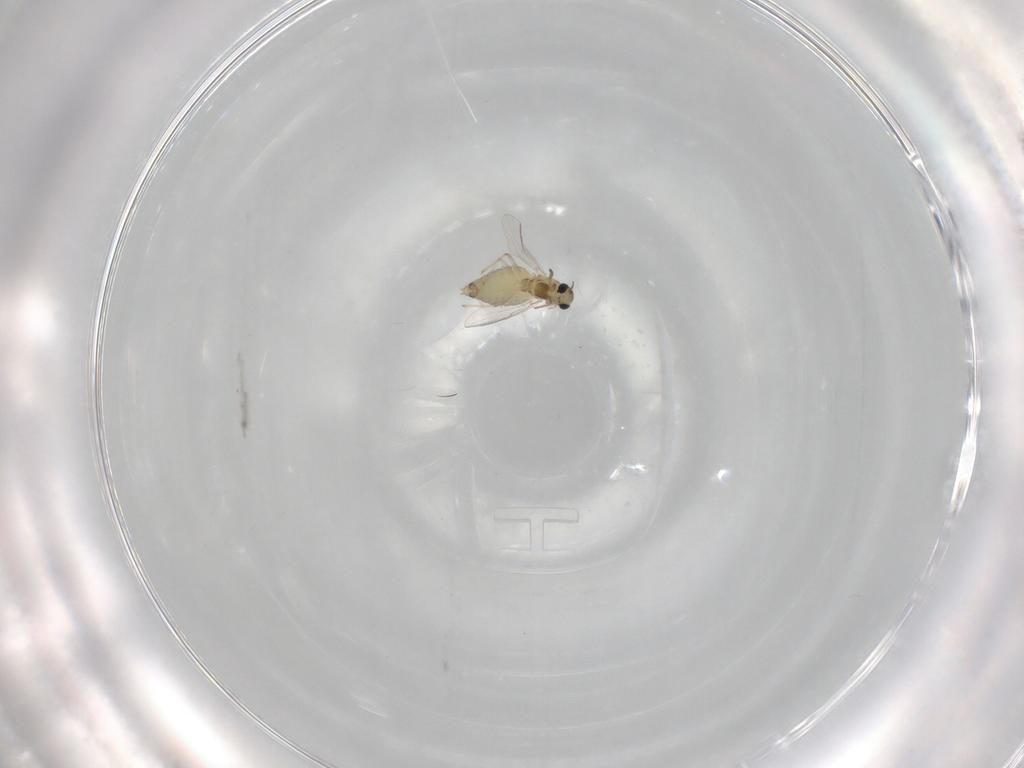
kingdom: Animalia
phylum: Arthropoda
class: Insecta
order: Diptera
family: Chironomidae
